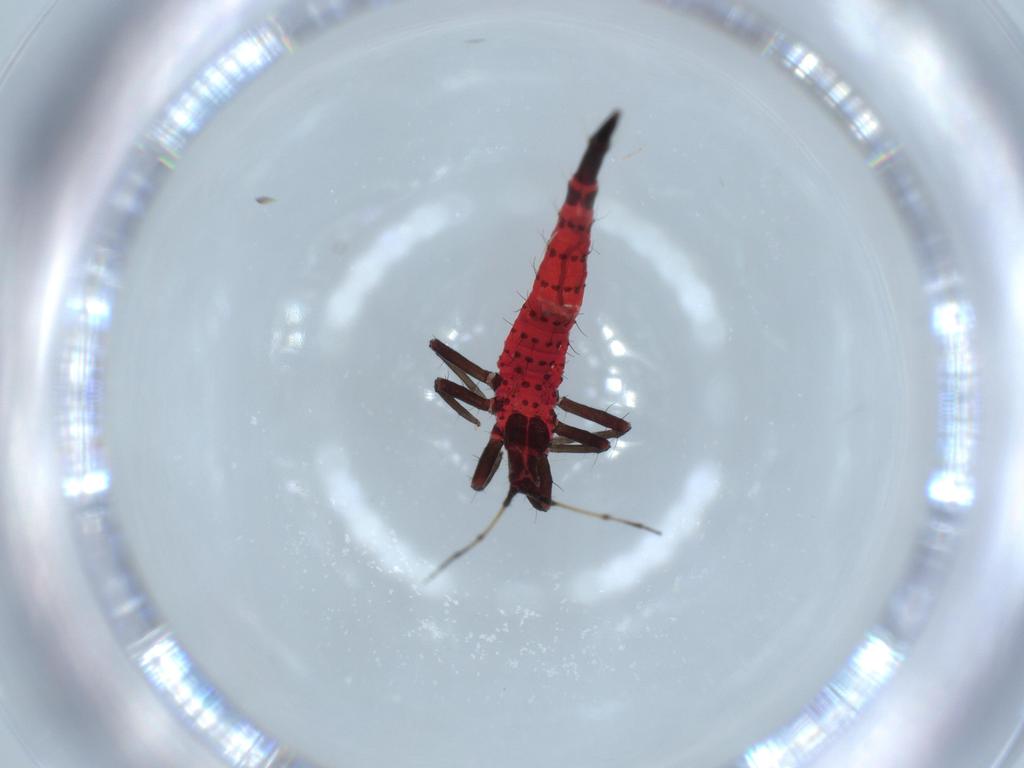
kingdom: Animalia
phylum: Arthropoda
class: Insecta
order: Thysanoptera
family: Phlaeothripidae
